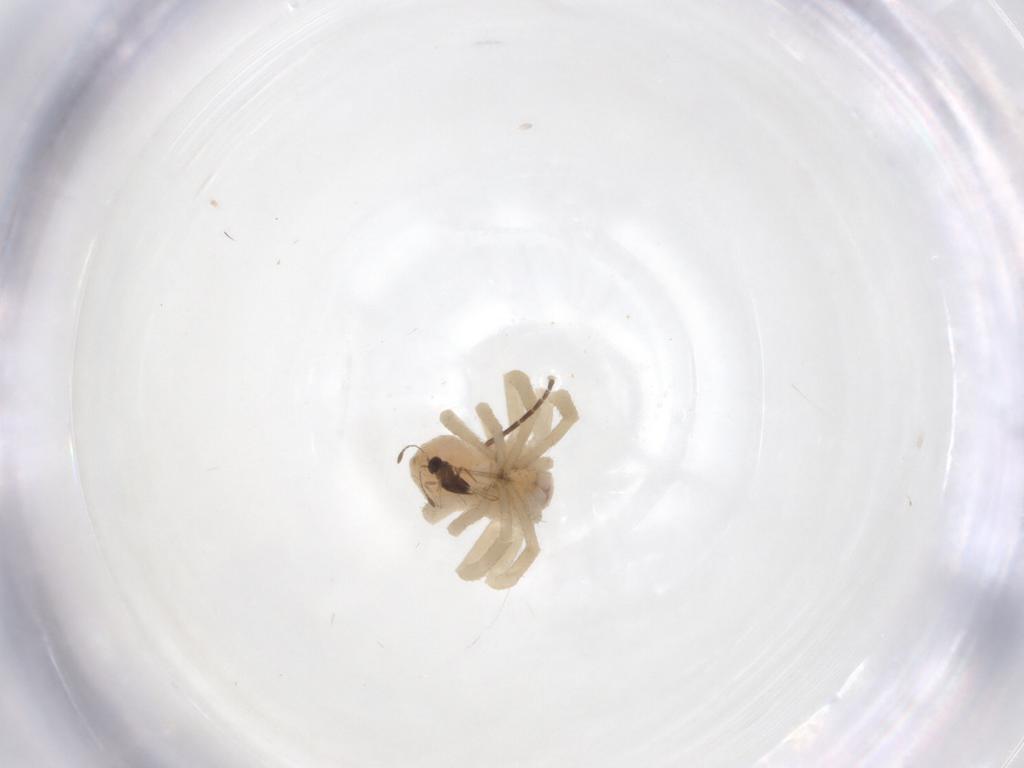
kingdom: Animalia
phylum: Arthropoda
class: Arachnida
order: Araneae
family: Thomisidae
